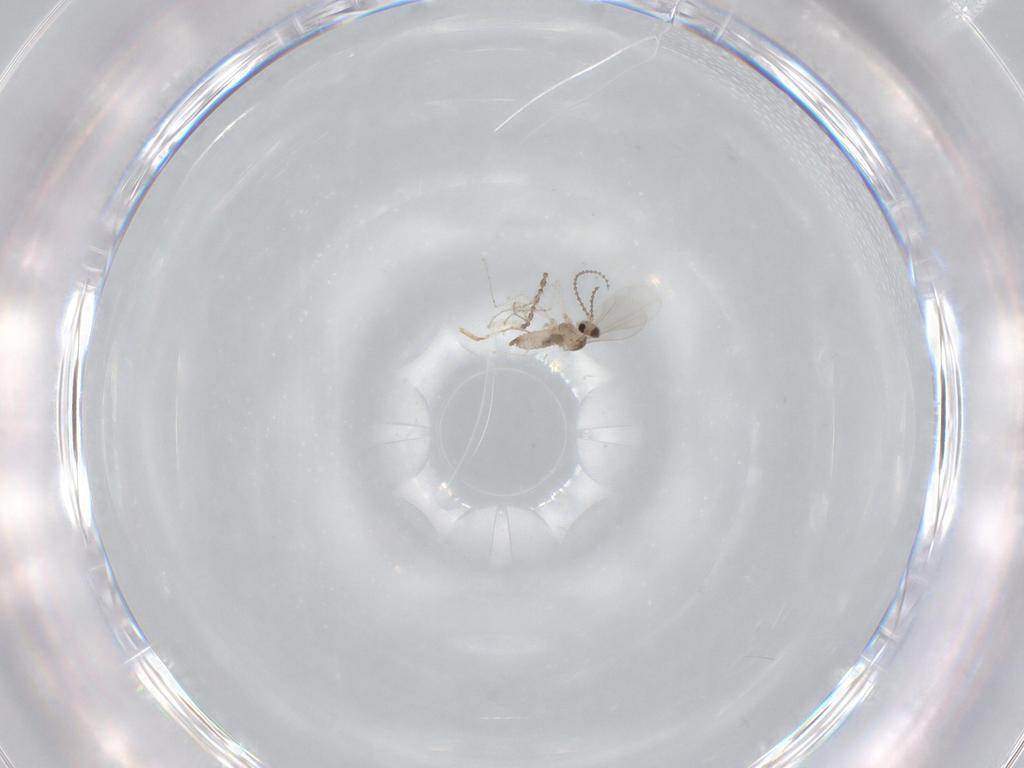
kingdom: Animalia
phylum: Arthropoda
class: Insecta
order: Diptera
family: Cecidomyiidae
